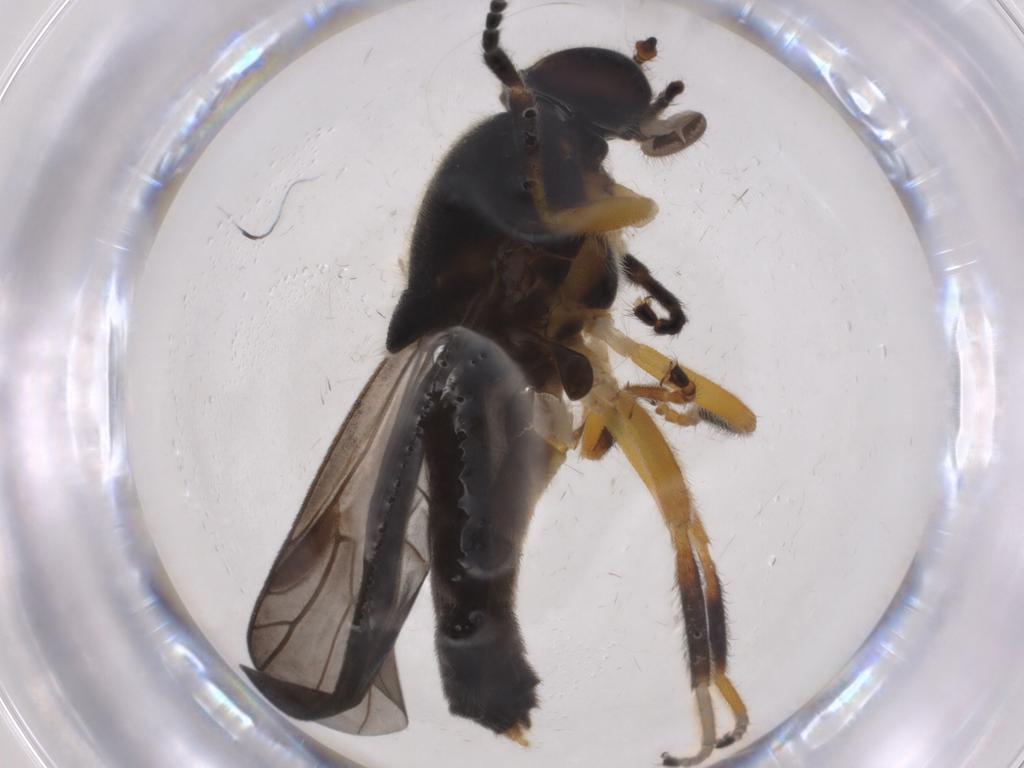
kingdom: Animalia
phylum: Arthropoda
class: Insecta
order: Diptera
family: Stratiomyidae
